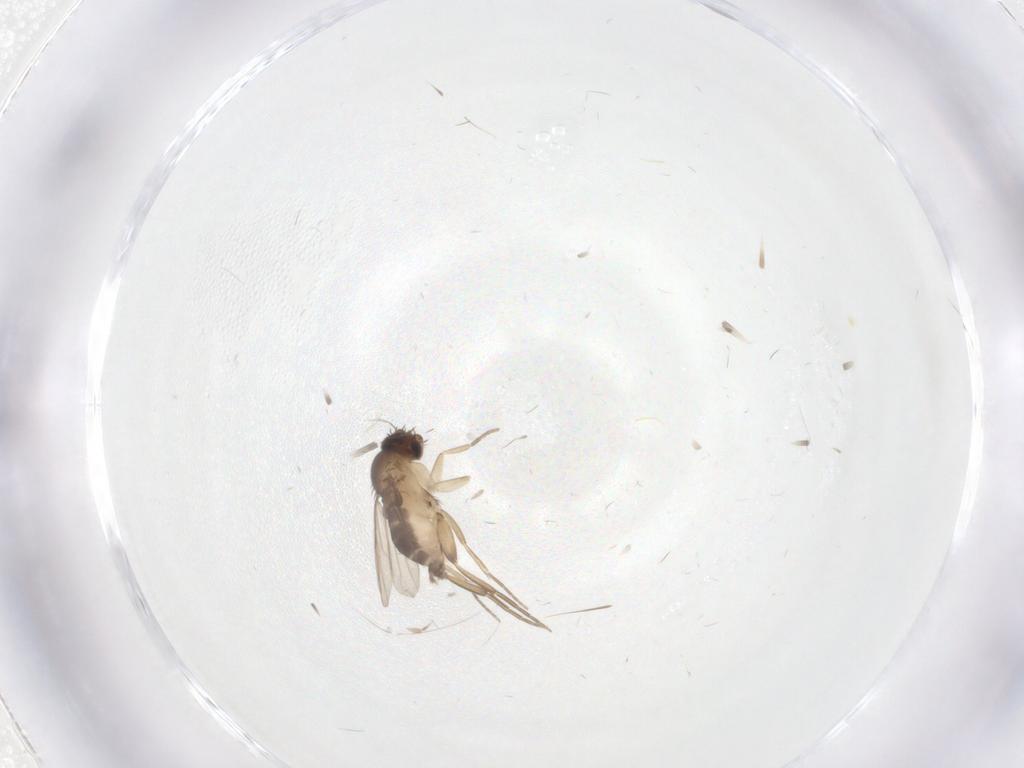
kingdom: Animalia
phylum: Arthropoda
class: Insecta
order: Diptera
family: Phoridae
